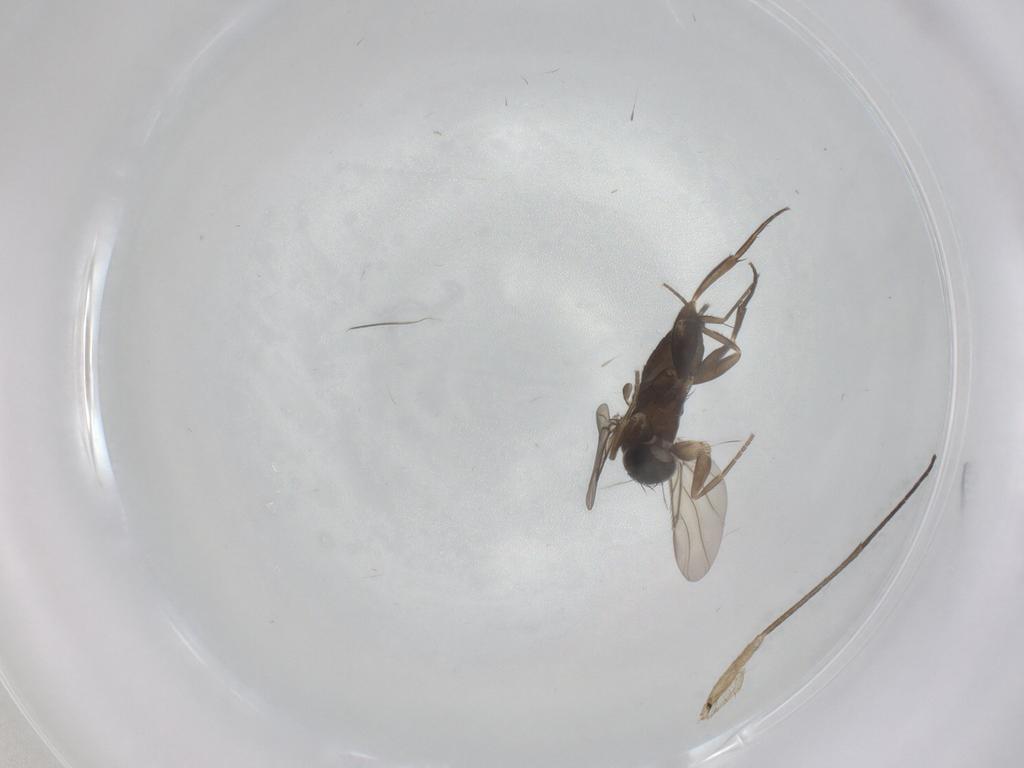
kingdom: Animalia
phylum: Arthropoda
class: Insecta
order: Diptera
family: Phoridae
